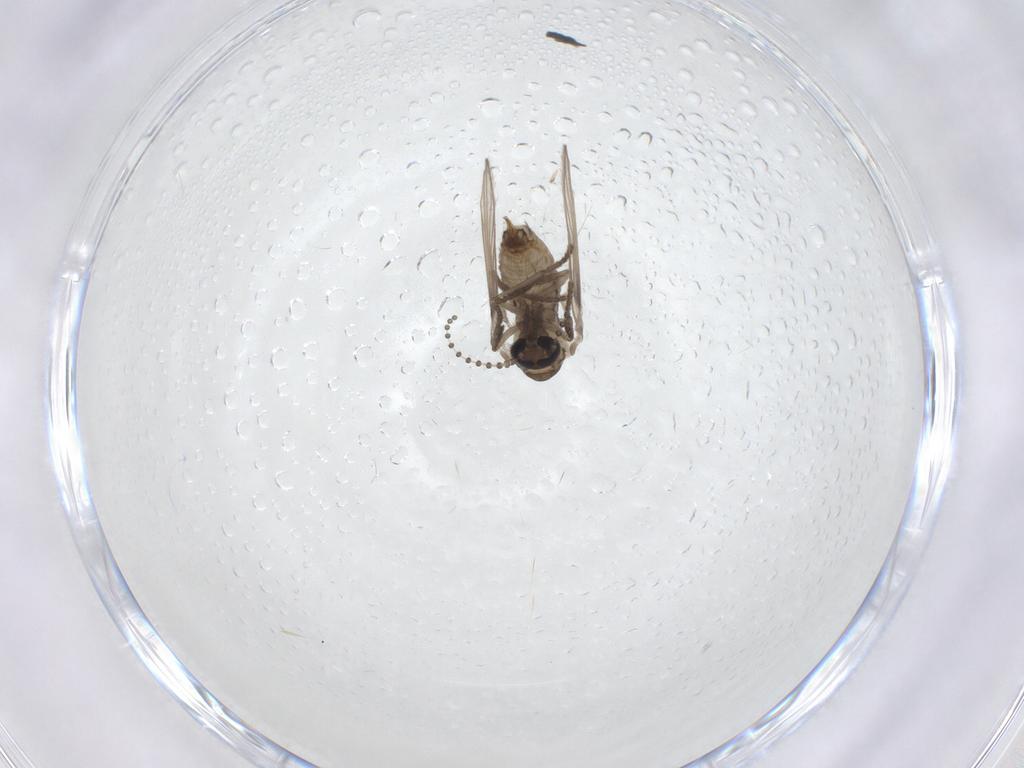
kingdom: Animalia
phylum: Arthropoda
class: Insecta
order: Diptera
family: Psychodidae
